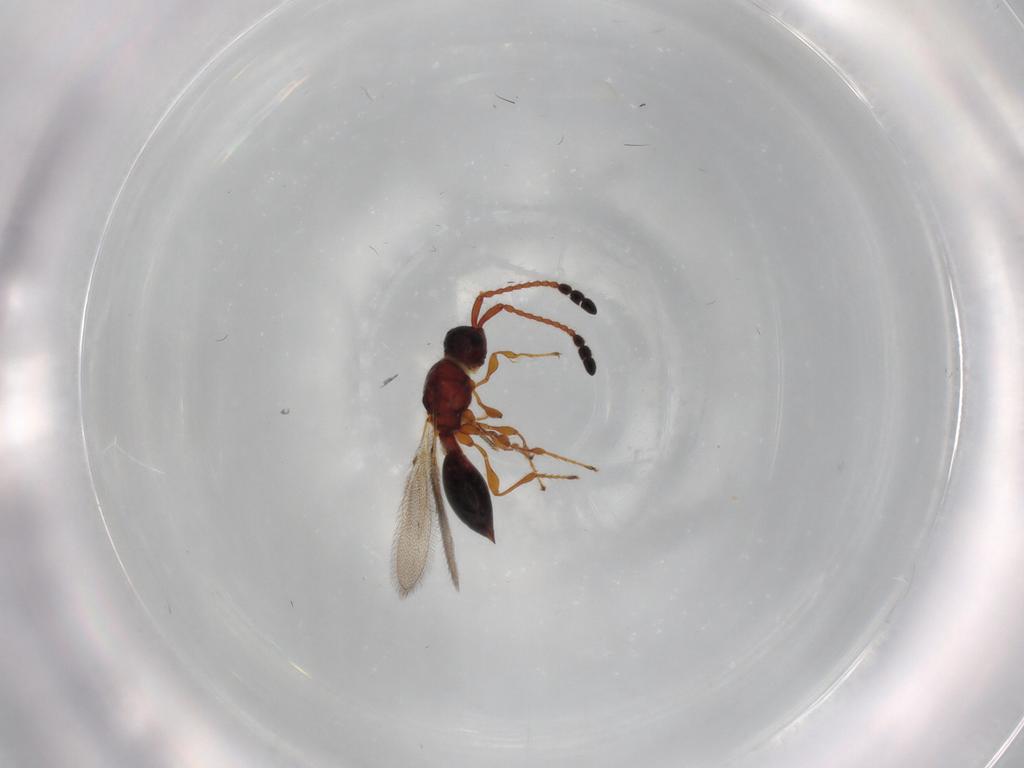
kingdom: Animalia
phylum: Arthropoda
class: Insecta
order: Hymenoptera
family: Diapriidae
